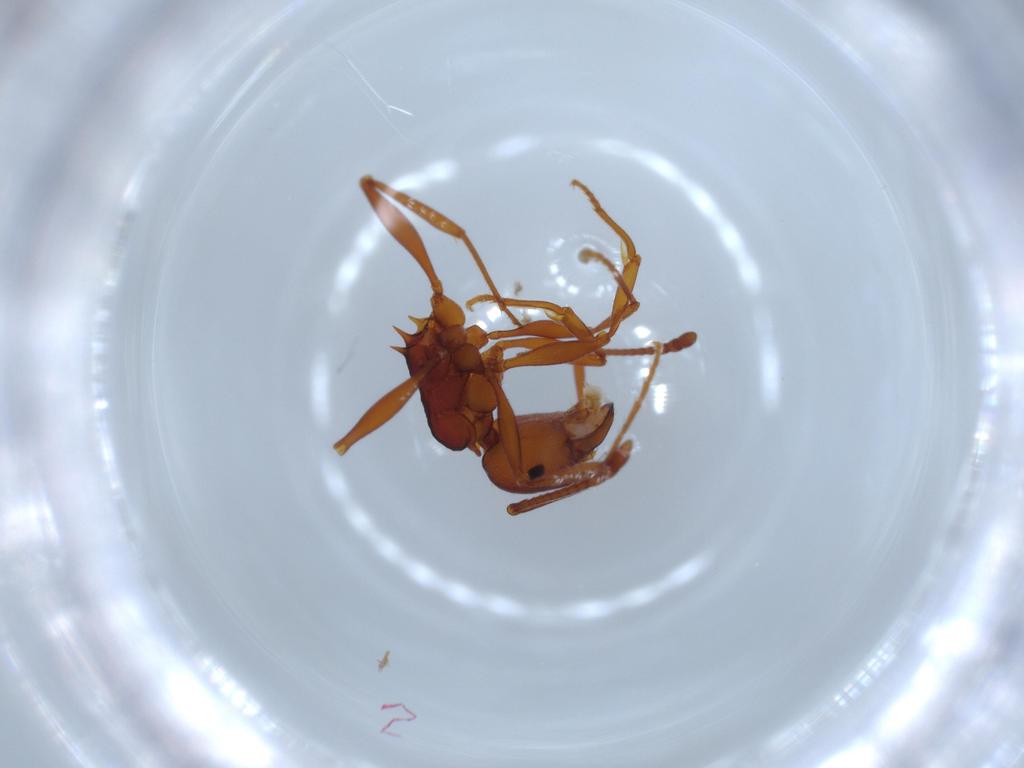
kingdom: Animalia
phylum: Arthropoda
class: Insecta
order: Hymenoptera
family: Formicidae
